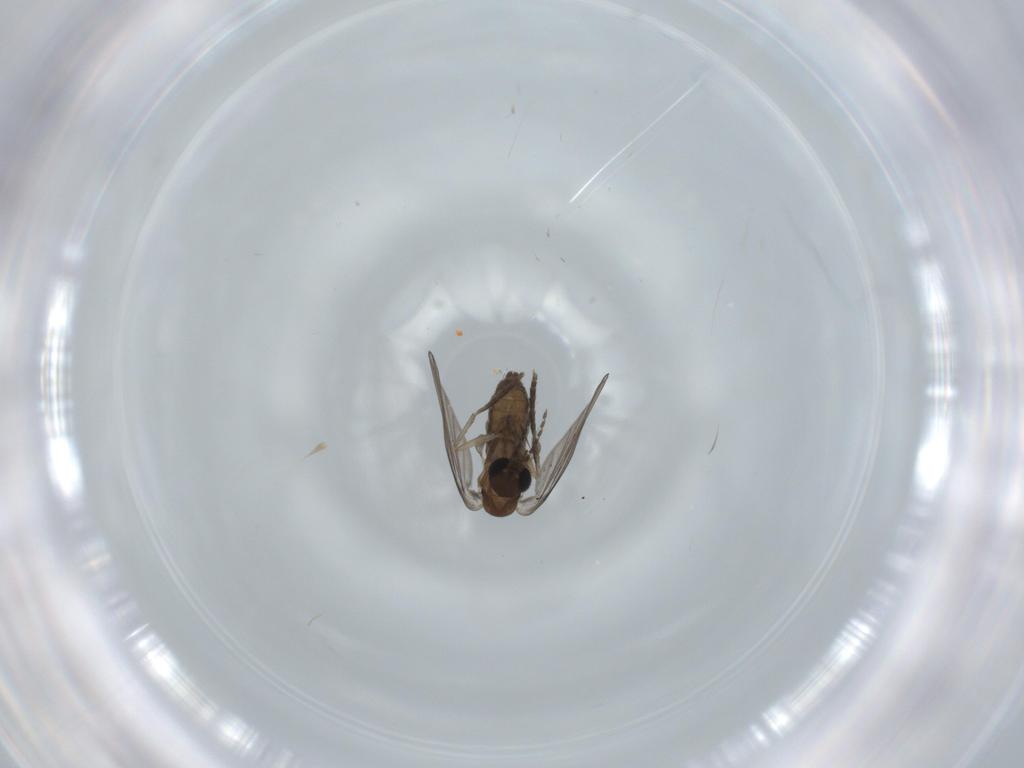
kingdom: Animalia
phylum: Arthropoda
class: Insecta
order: Diptera
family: Psychodidae
